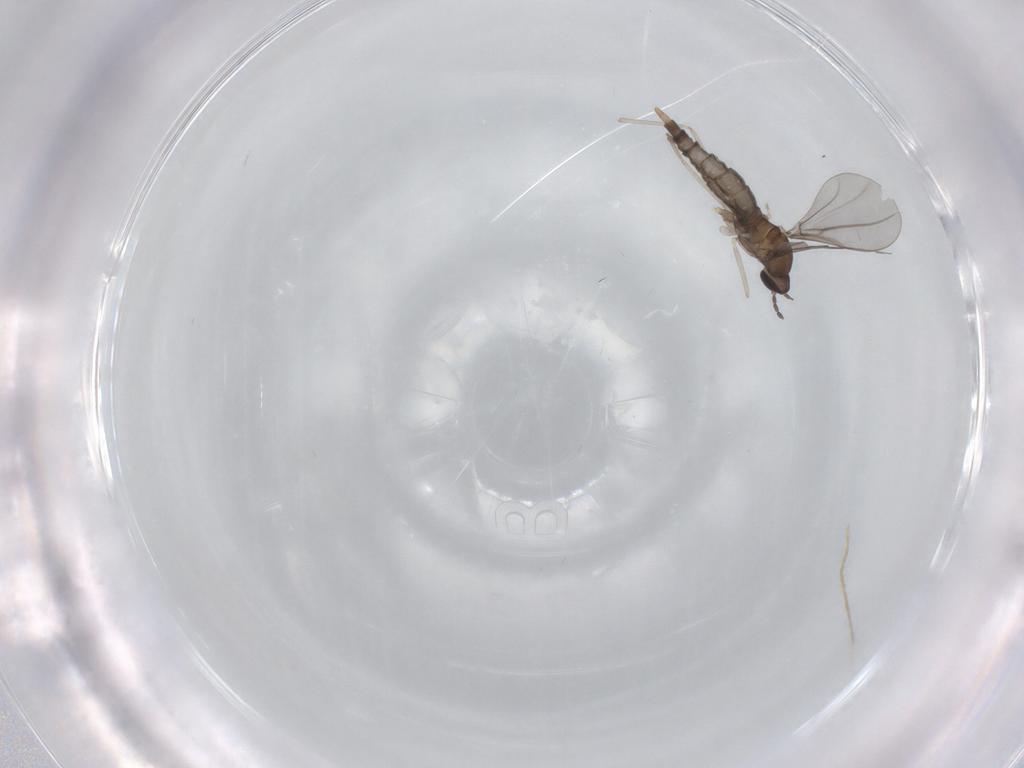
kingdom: Animalia
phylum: Arthropoda
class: Insecta
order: Diptera
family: Cecidomyiidae
